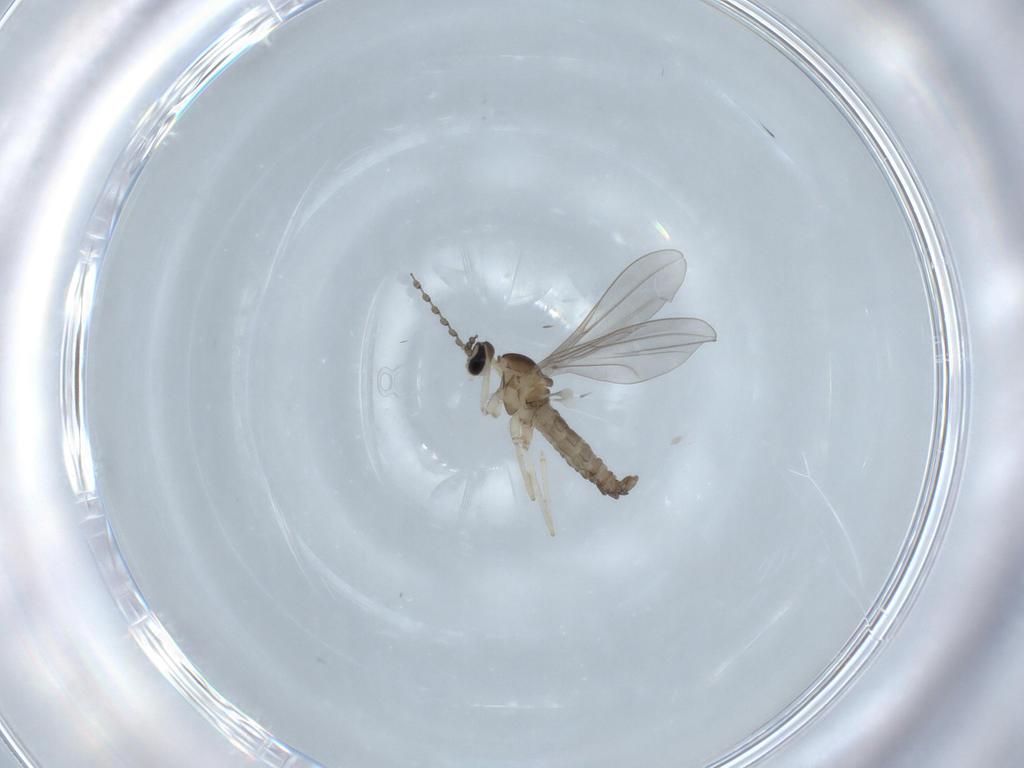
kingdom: Animalia
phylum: Arthropoda
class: Insecta
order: Diptera
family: Cecidomyiidae
